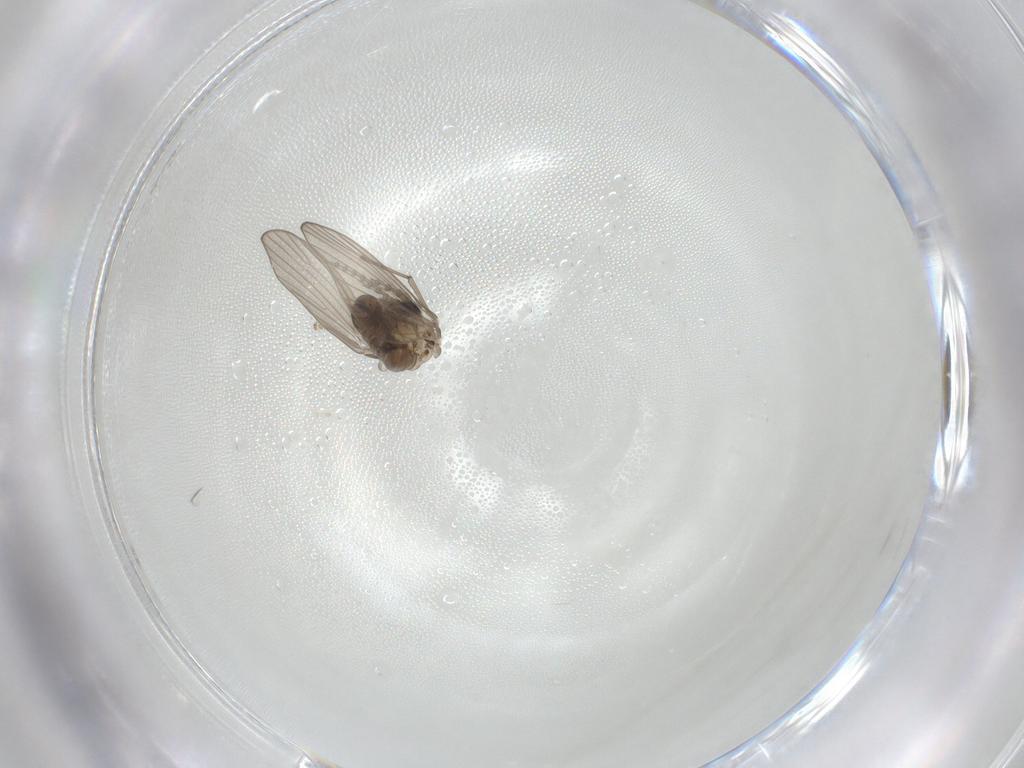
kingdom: Animalia
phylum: Arthropoda
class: Insecta
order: Diptera
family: Psychodidae
